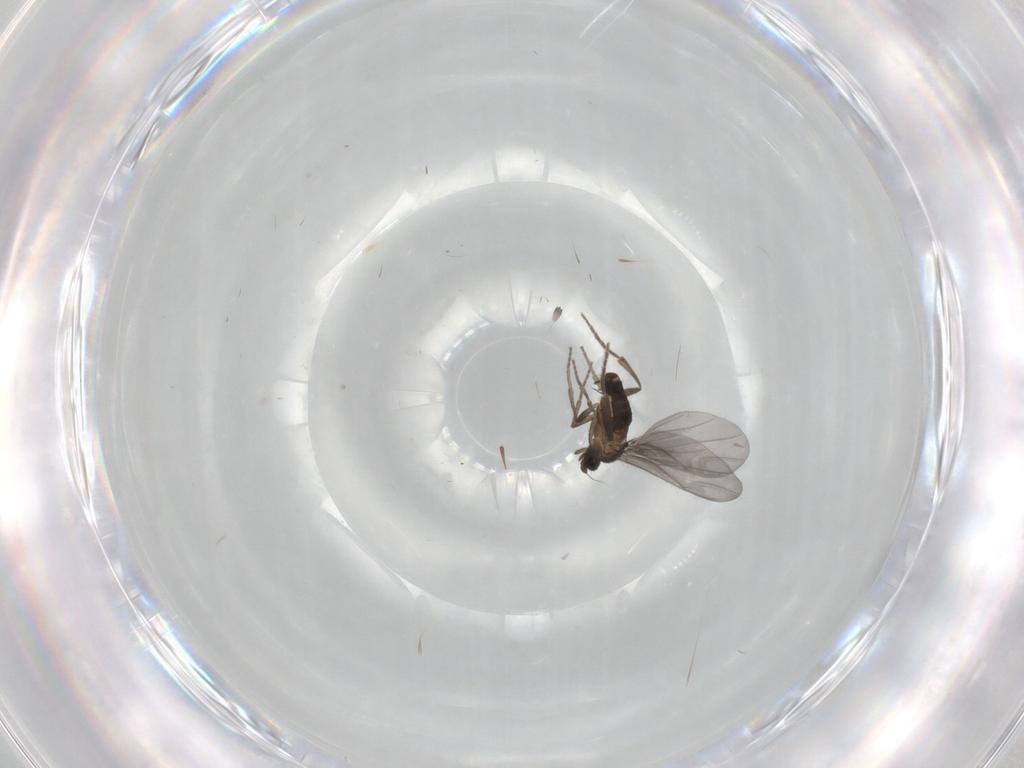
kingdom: Animalia
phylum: Arthropoda
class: Insecta
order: Diptera
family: Phoridae
